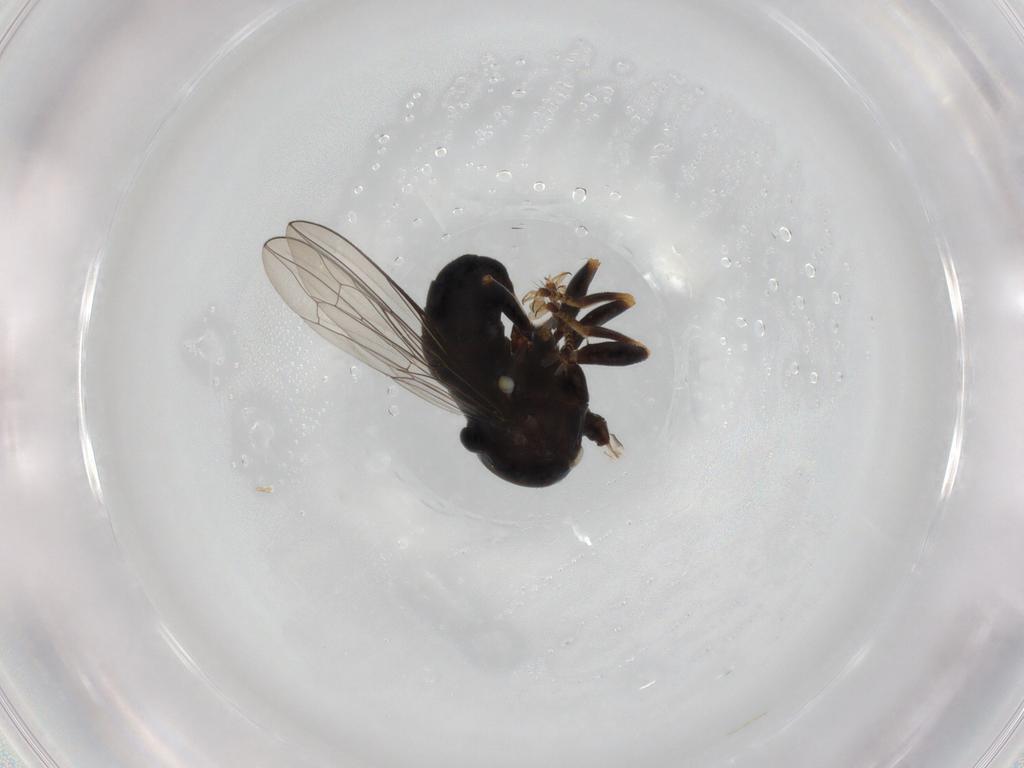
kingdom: Animalia
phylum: Arthropoda
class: Insecta
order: Diptera
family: Pipunculidae
